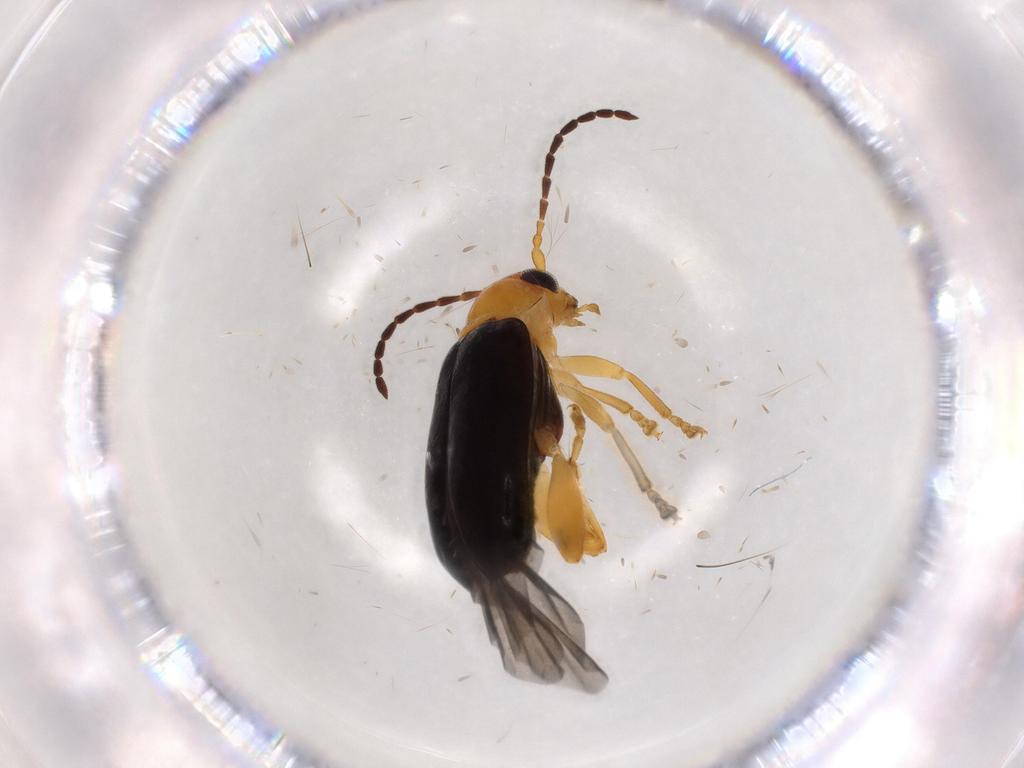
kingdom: Animalia
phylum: Arthropoda
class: Insecta
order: Coleoptera
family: Chrysomelidae
